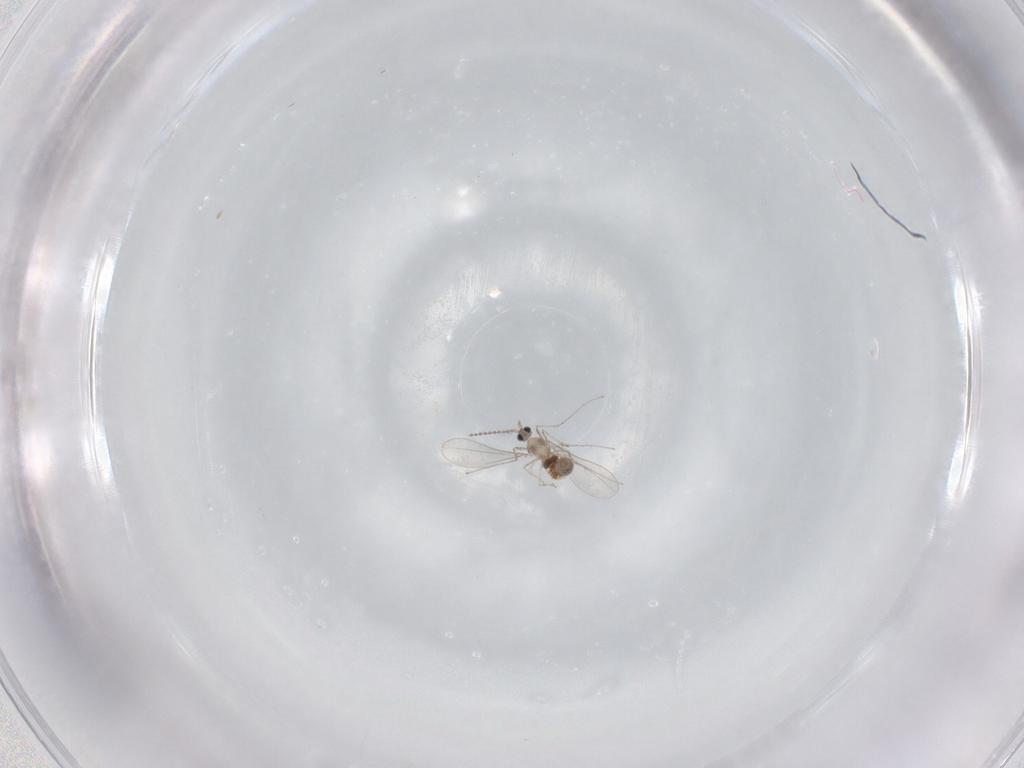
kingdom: Animalia
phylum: Arthropoda
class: Insecta
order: Diptera
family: Cecidomyiidae
